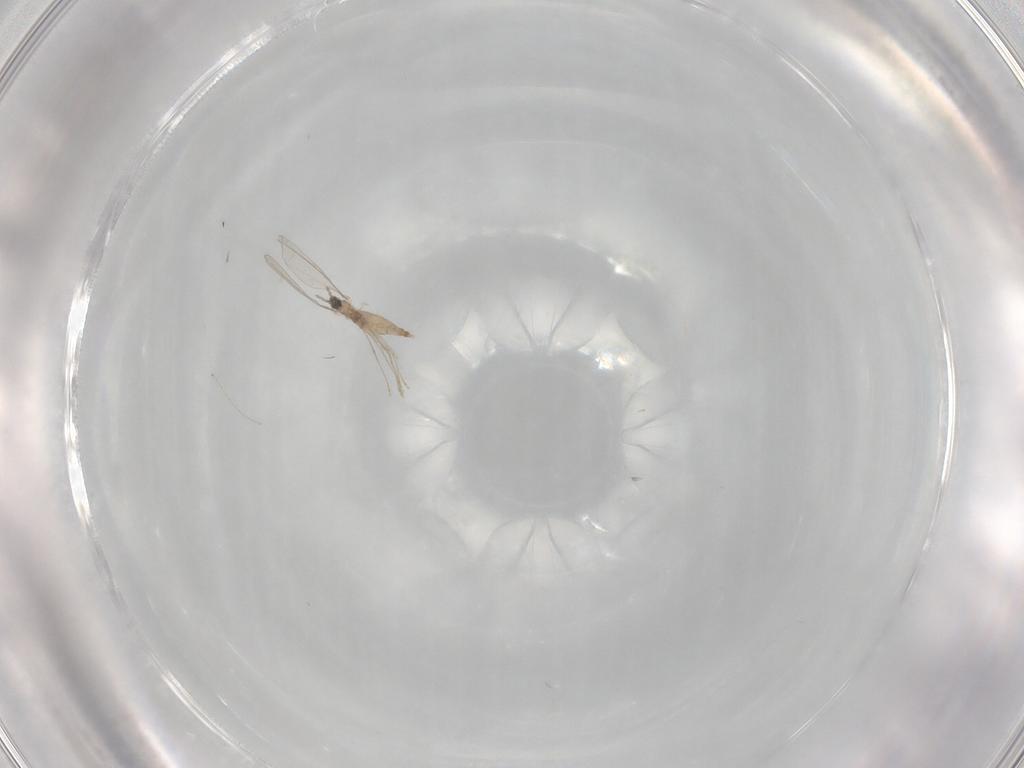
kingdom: Animalia
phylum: Arthropoda
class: Insecta
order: Diptera
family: Cecidomyiidae
